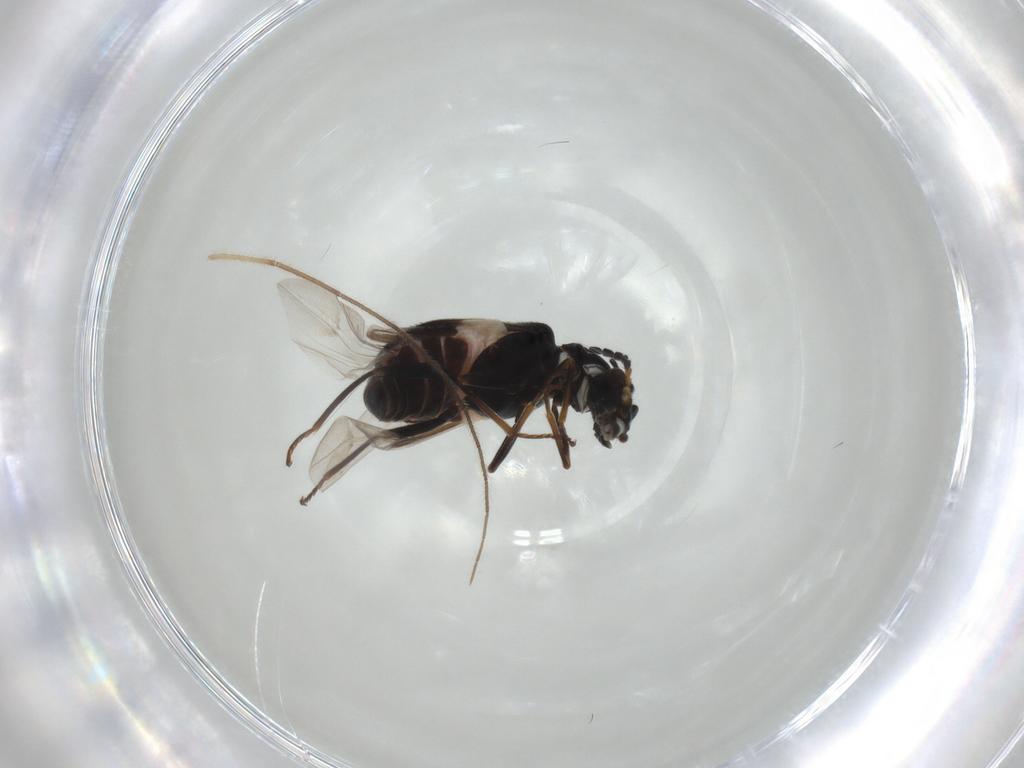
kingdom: Animalia
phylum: Arthropoda
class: Insecta
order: Coleoptera
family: Melyridae
